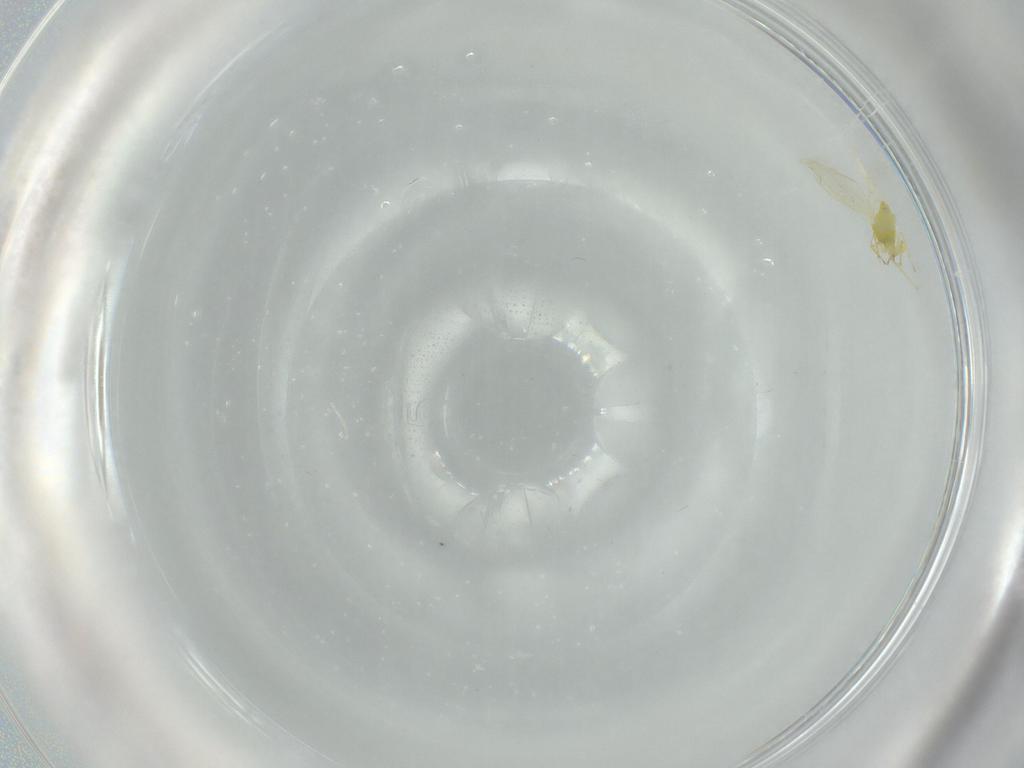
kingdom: Animalia
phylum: Arthropoda
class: Insecta
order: Hemiptera
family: Aleyrodidae
